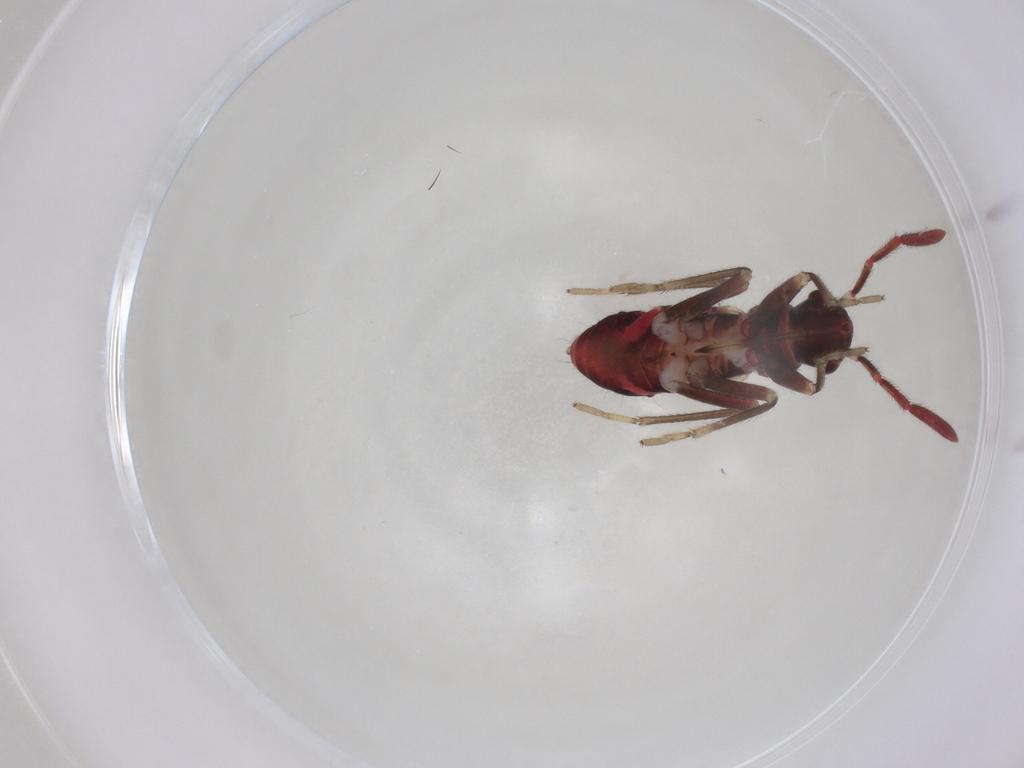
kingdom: Animalia
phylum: Arthropoda
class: Insecta
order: Hemiptera
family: Rhyparochromidae
